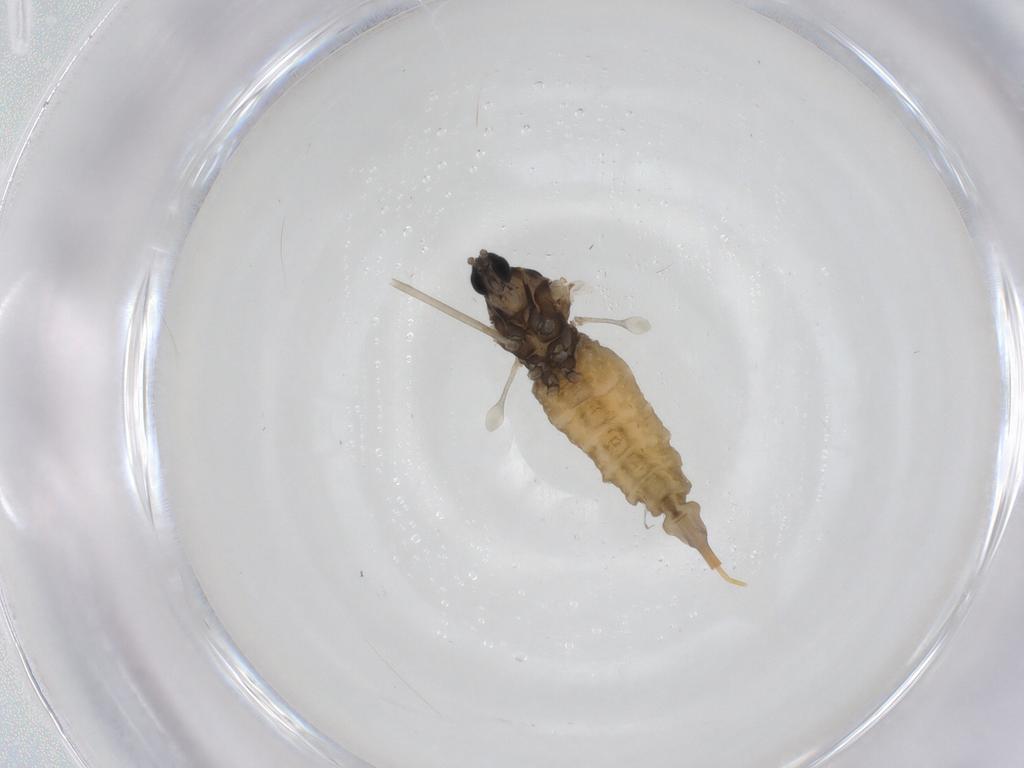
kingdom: Animalia
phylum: Arthropoda
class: Insecta
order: Diptera
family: Cecidomyiidae
